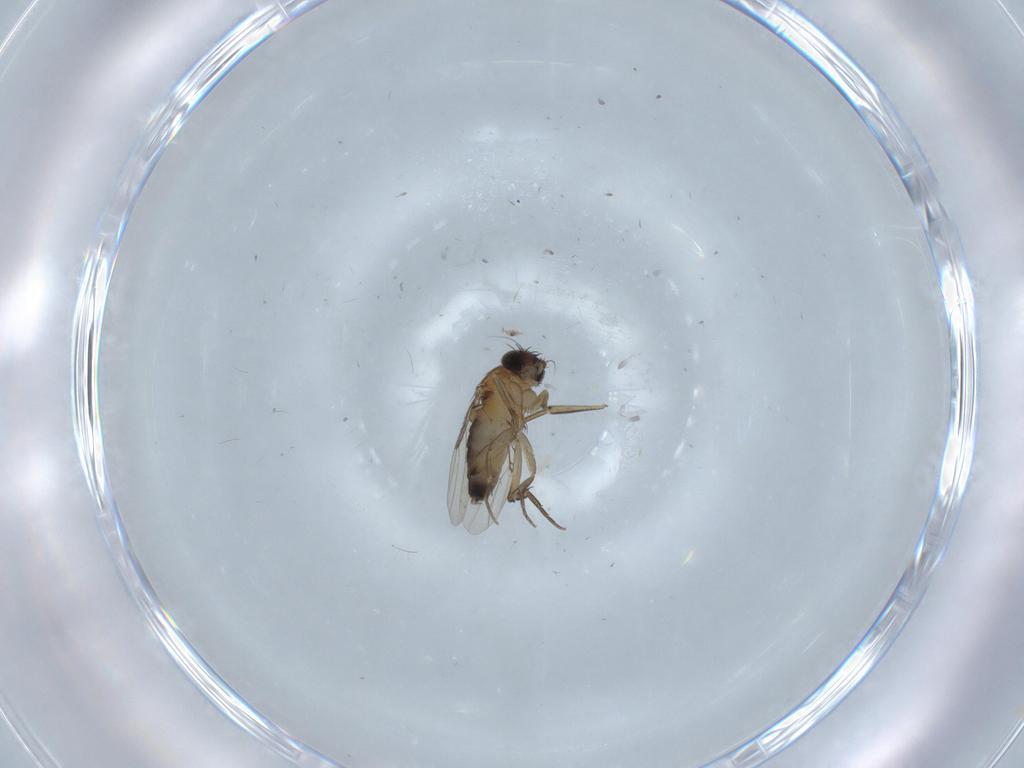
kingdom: Animalia
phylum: Arthropoda
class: Insecta
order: Diptera
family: Phoridae
